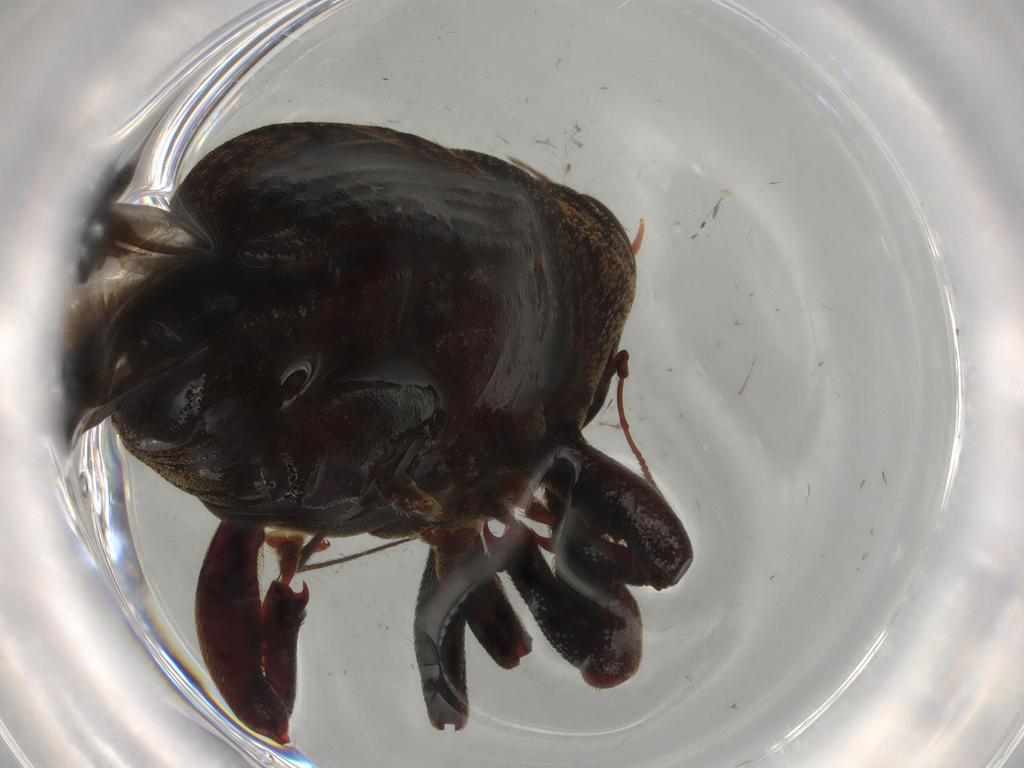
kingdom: Animalia
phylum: Arthropoda
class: Insecta
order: Coleoptera
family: Curculionidae
